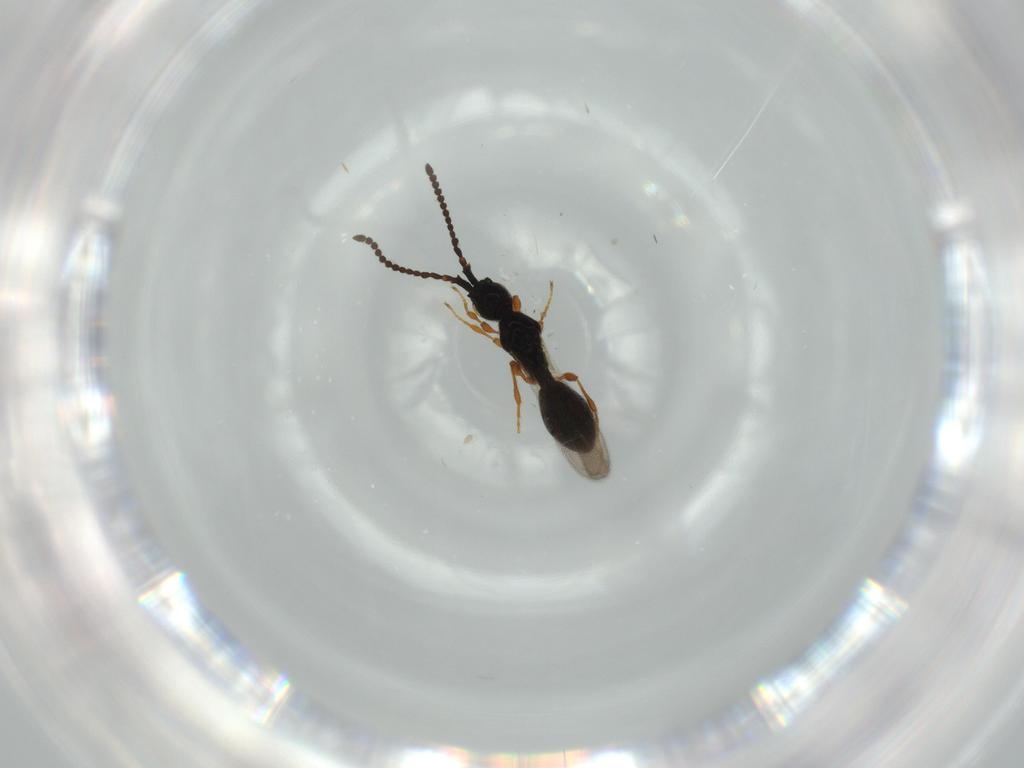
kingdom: Animalia
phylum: Arthropoda
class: Insecta
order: Hymenoptera
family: Diapriidae
